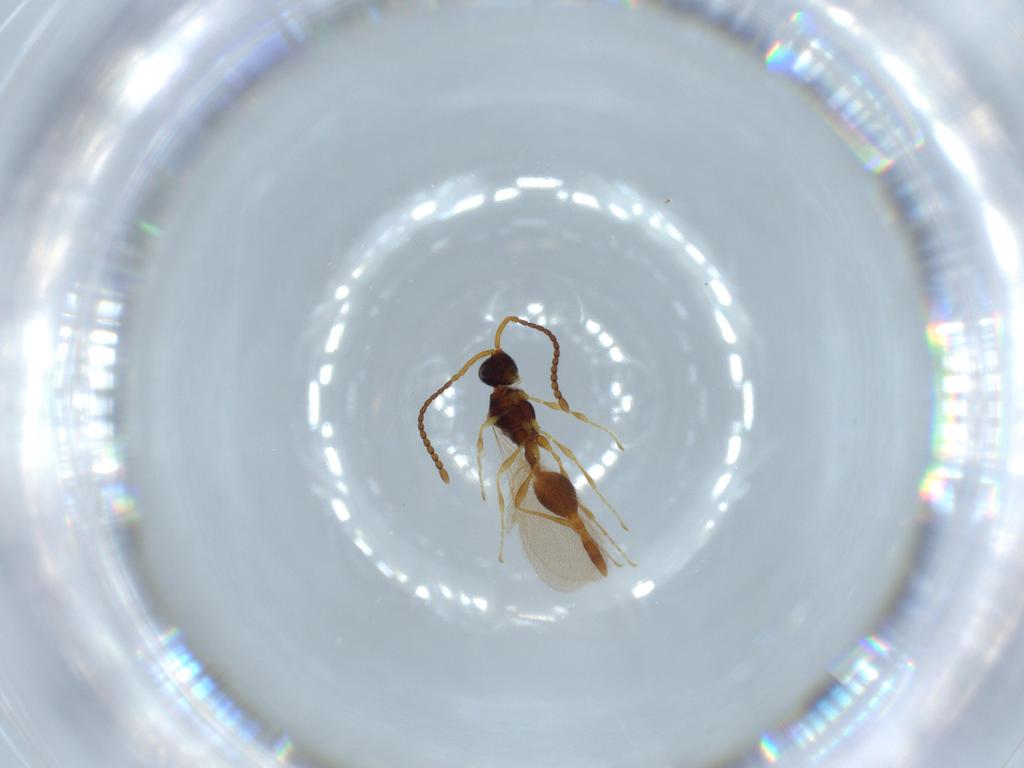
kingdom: Animalia
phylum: Arthropoda
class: Insecta
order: Hymenoptera
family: Diapriidae
